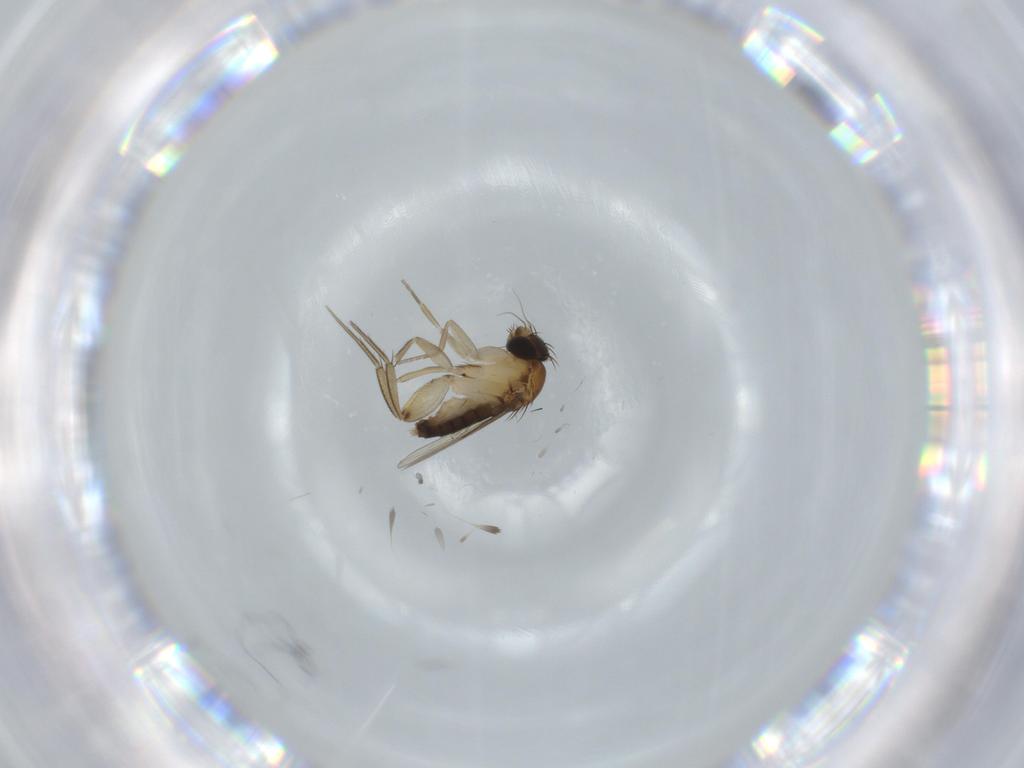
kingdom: Animalia
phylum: Arthropoda
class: Insecta
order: Diptera
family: Phoridae
